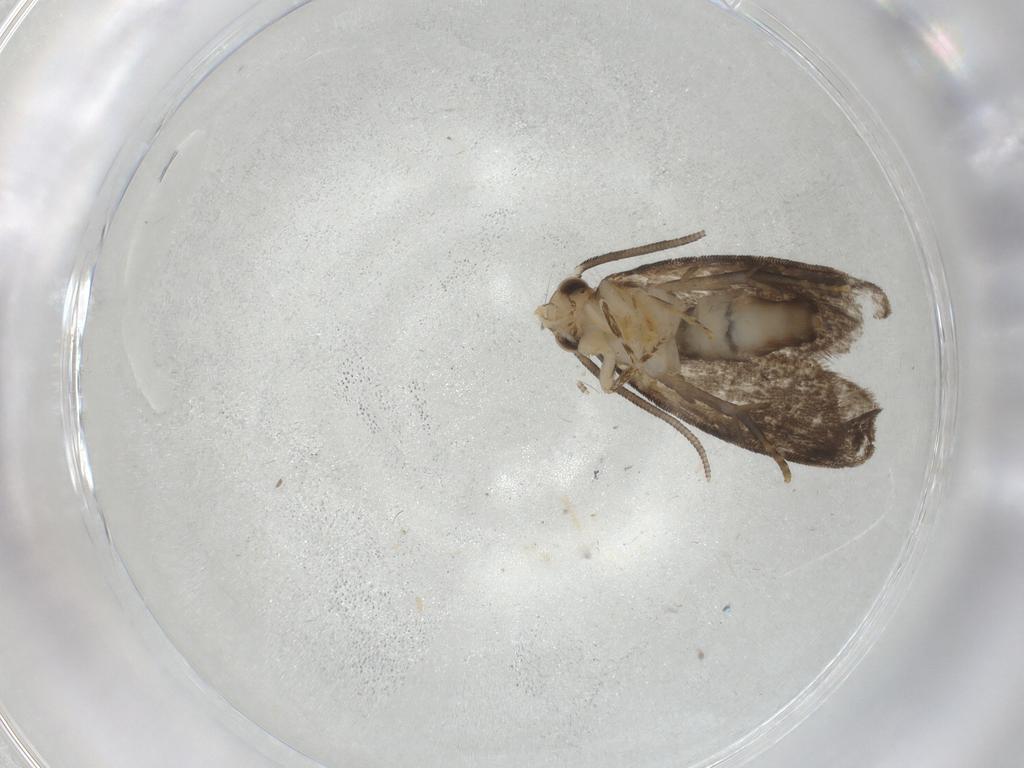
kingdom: Animalia
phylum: Arthropoda
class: Insecta
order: Lepidoptera
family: Dryadaulidae
